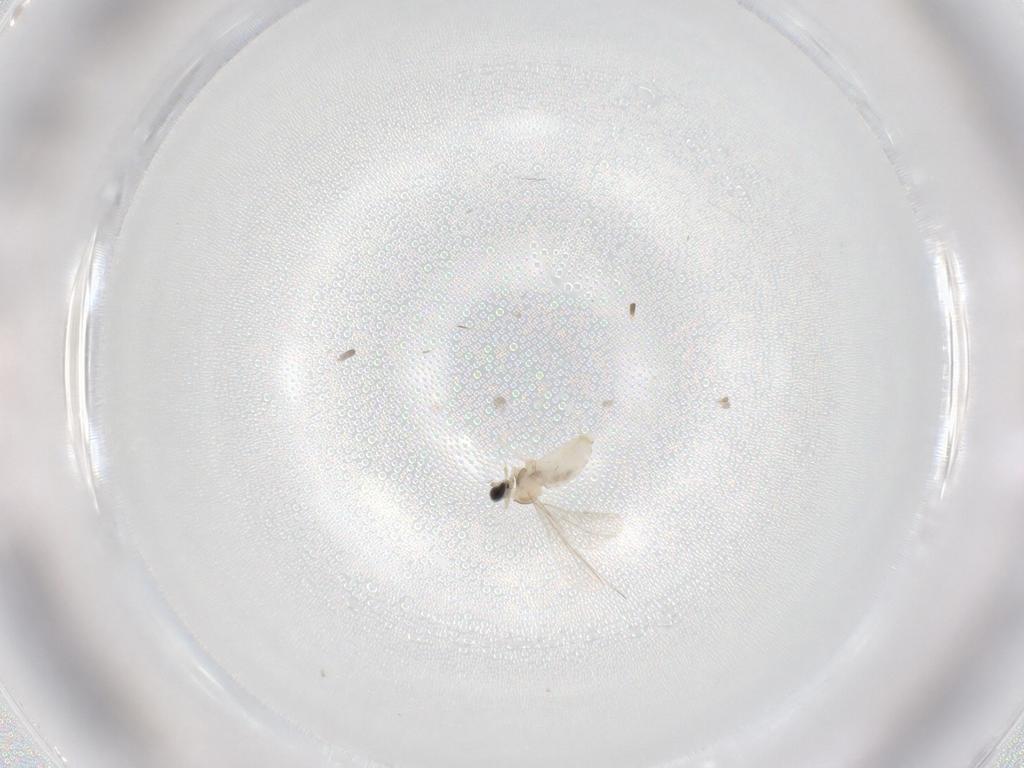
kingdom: Animalia
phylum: Arthropoda
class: Insecta
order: Diptera
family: Cecidomyiidae
